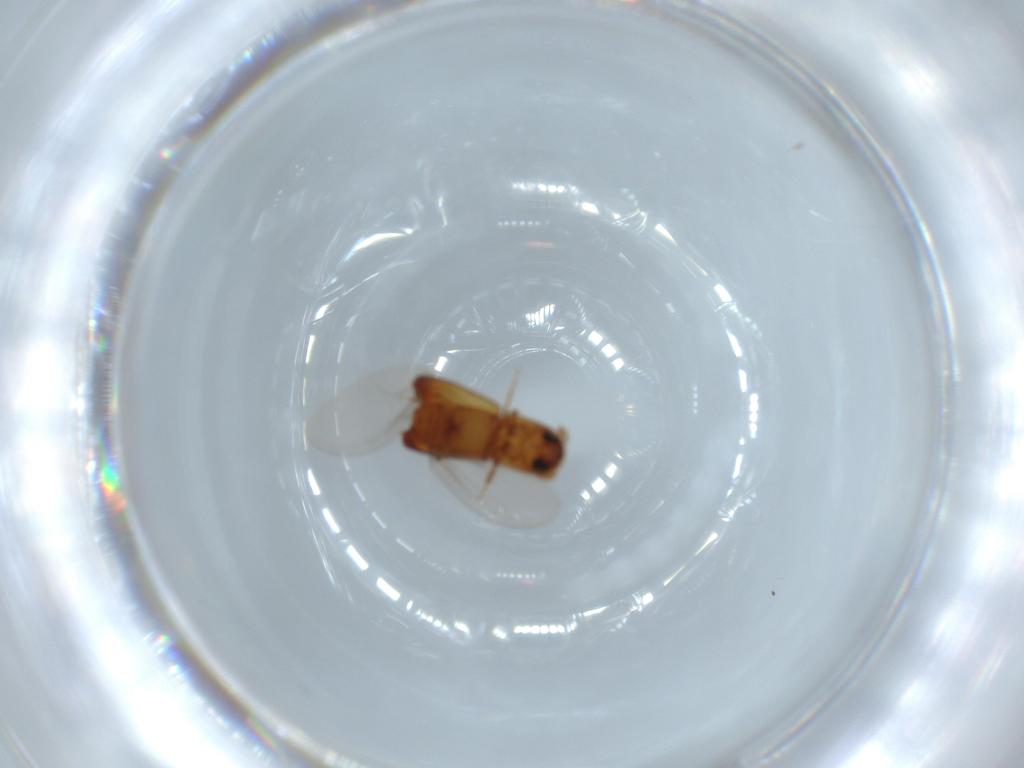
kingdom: Animalia
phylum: Arthropoda
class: Insecta
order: Coleoptera
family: Curculionidae
